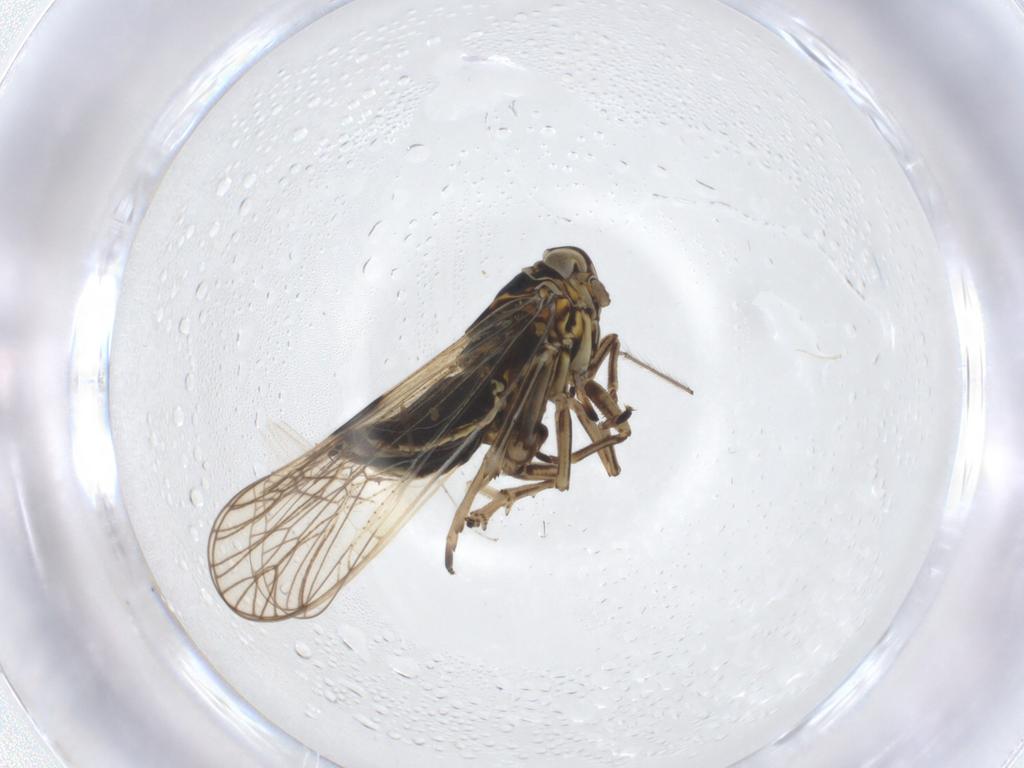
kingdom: Animalia
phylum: Arthropoda
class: Insecta
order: Hemiptera
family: Delphacidae
